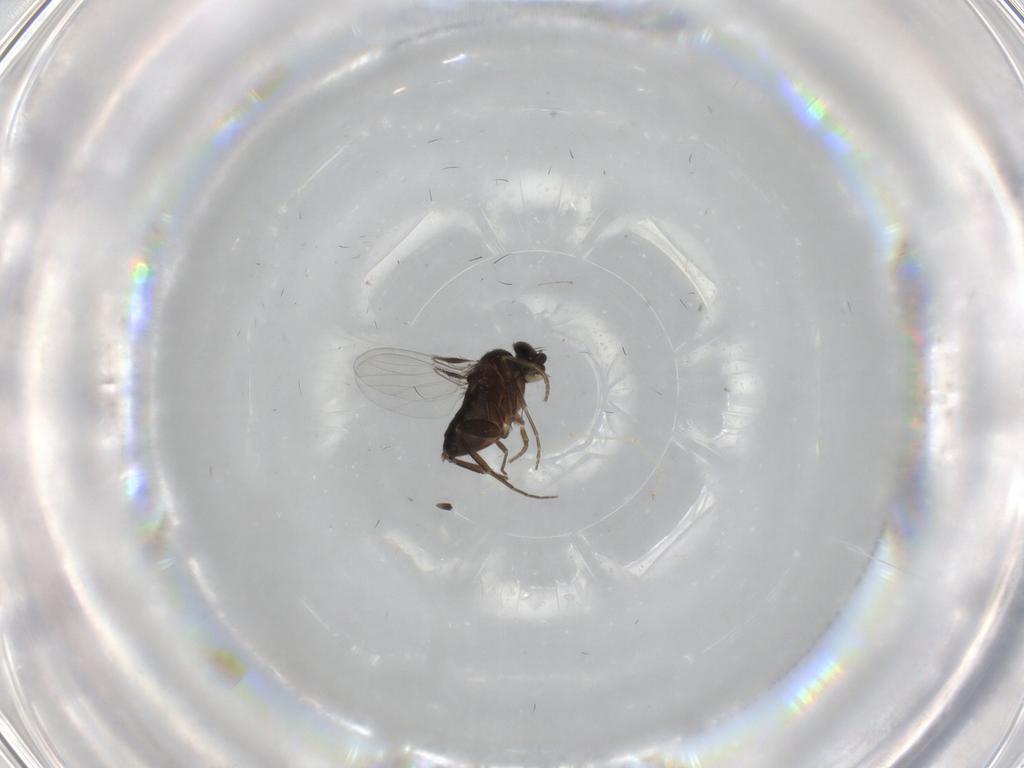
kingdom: Animalia
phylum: Arthropoda
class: Insecta
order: Diptera
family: Phoridae
